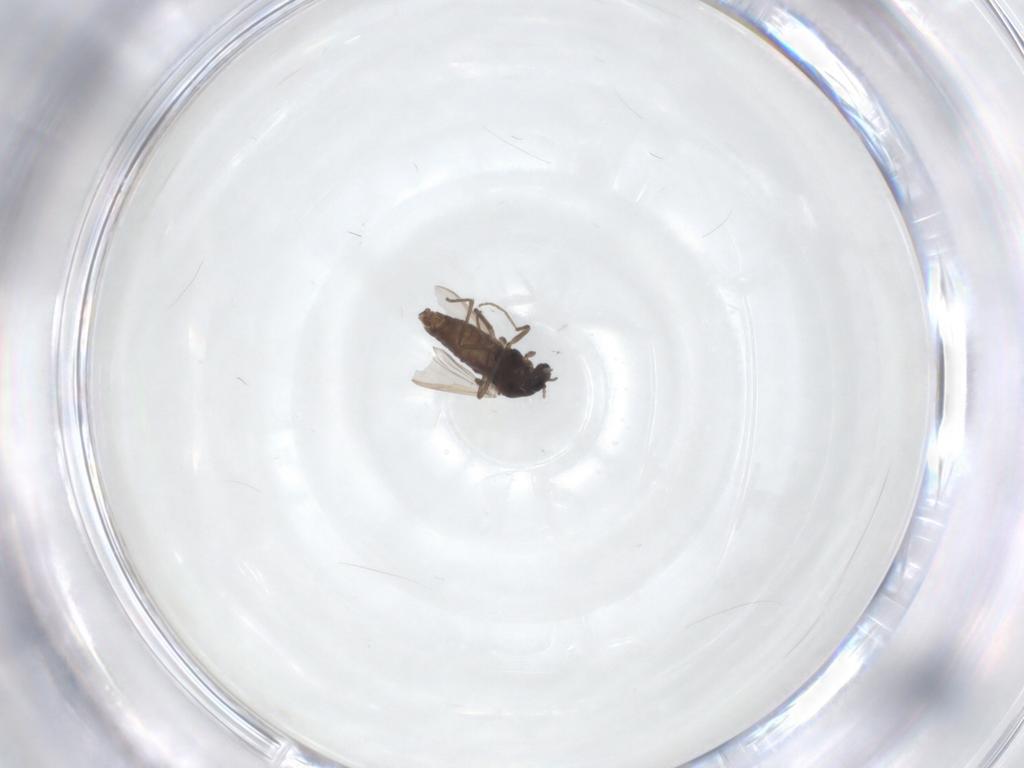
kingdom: Animalia
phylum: Arthropoda
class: Insecta
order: Diptera
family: Chironomidae
